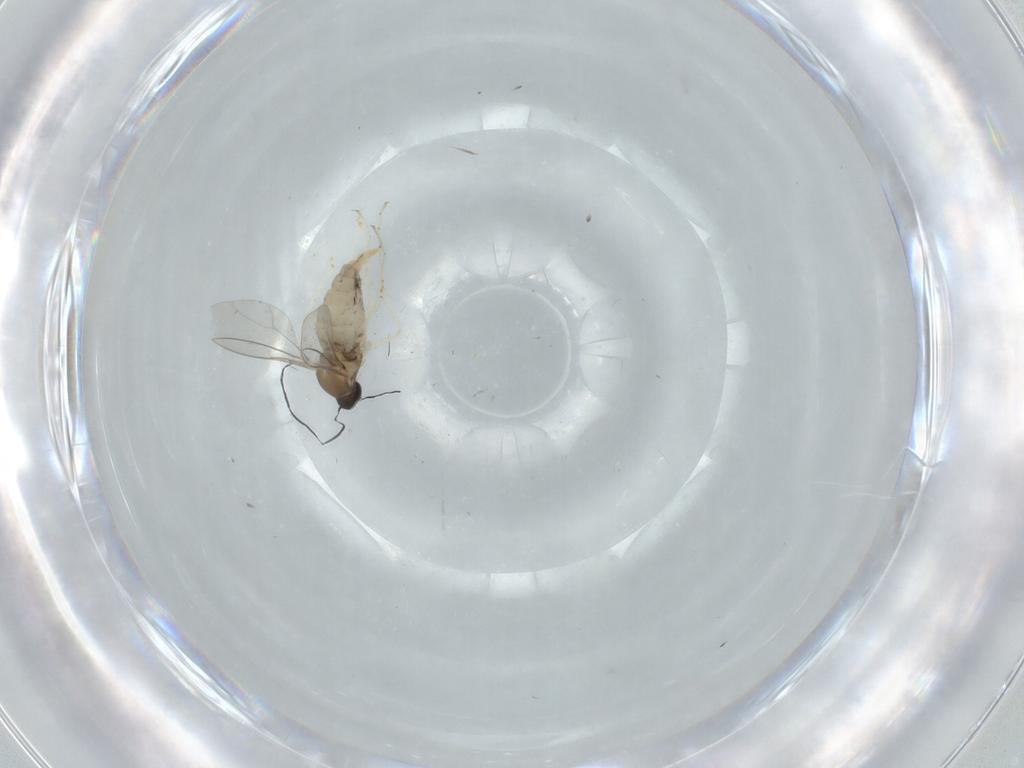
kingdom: Animalia
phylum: Arthropoda
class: Insecta
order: Diptera
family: Cecidomyiidae
